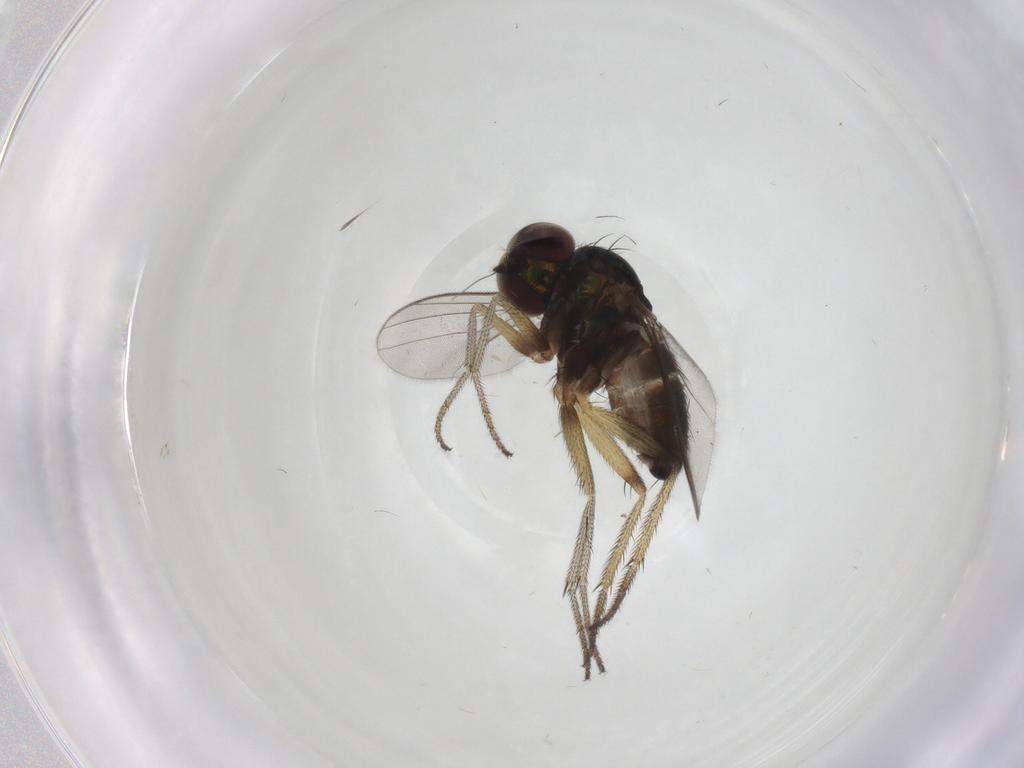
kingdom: Animalia
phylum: Arthropoda
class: Insecta
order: Diptera
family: Dolichopodidae
